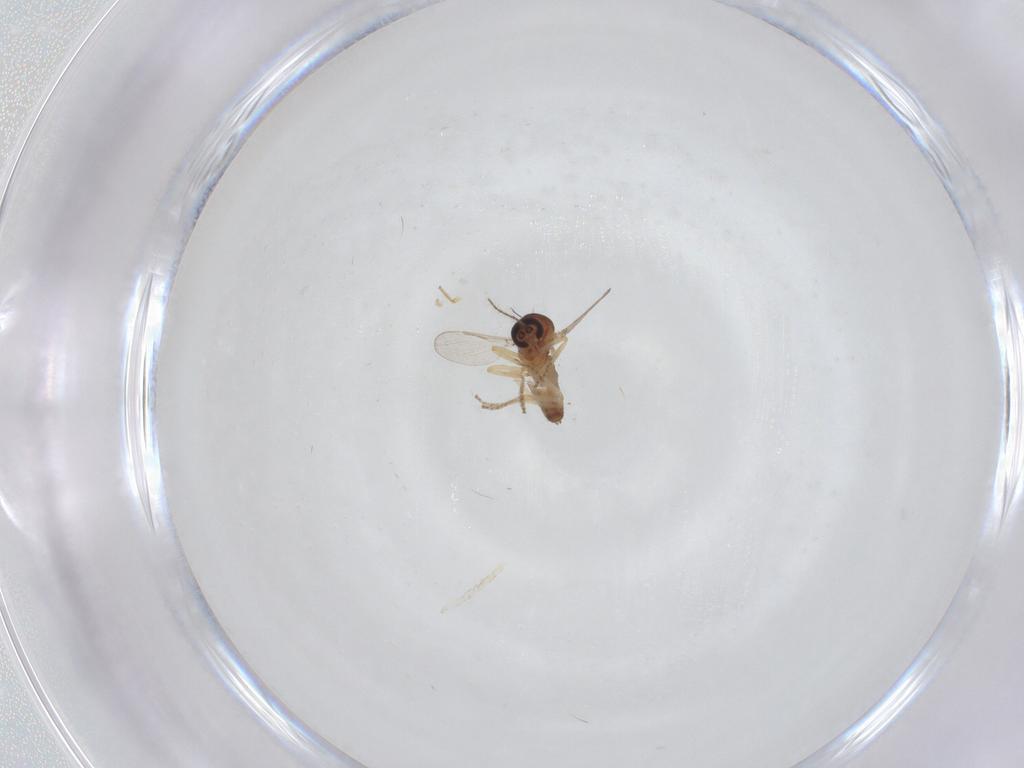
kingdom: Animalia
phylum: Arthropoda
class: Insecta
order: Diptera
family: Ceratopogonidae
